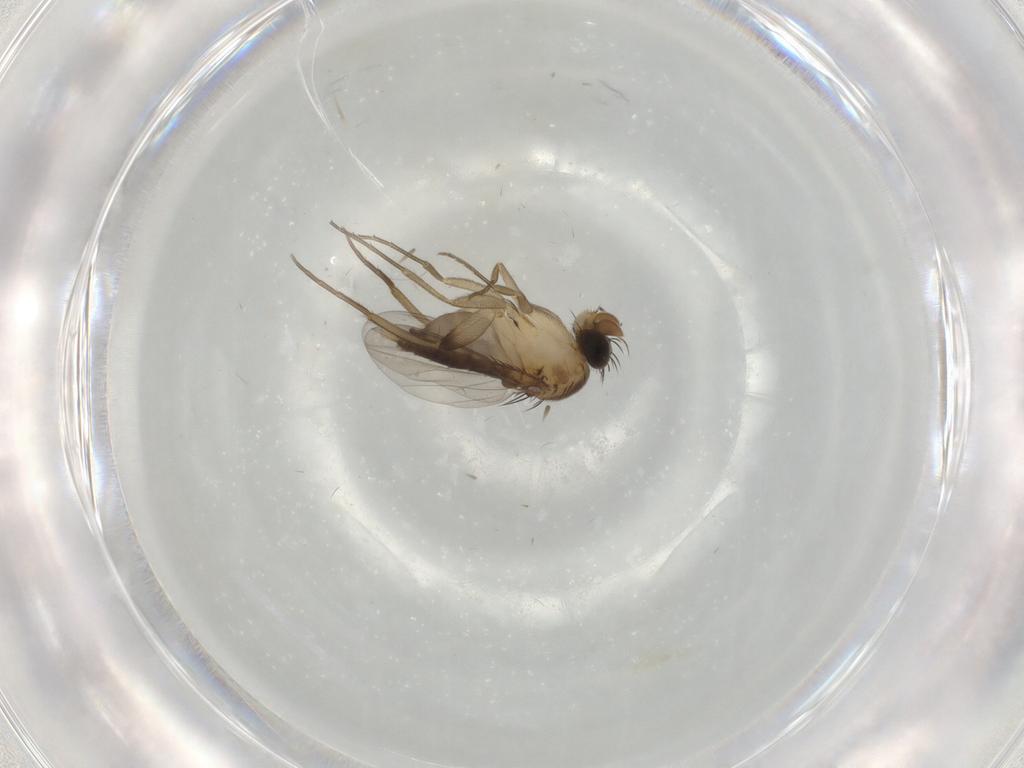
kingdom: Animalia
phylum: Arthropoda
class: Insecta
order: Diptera
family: Phoridae
